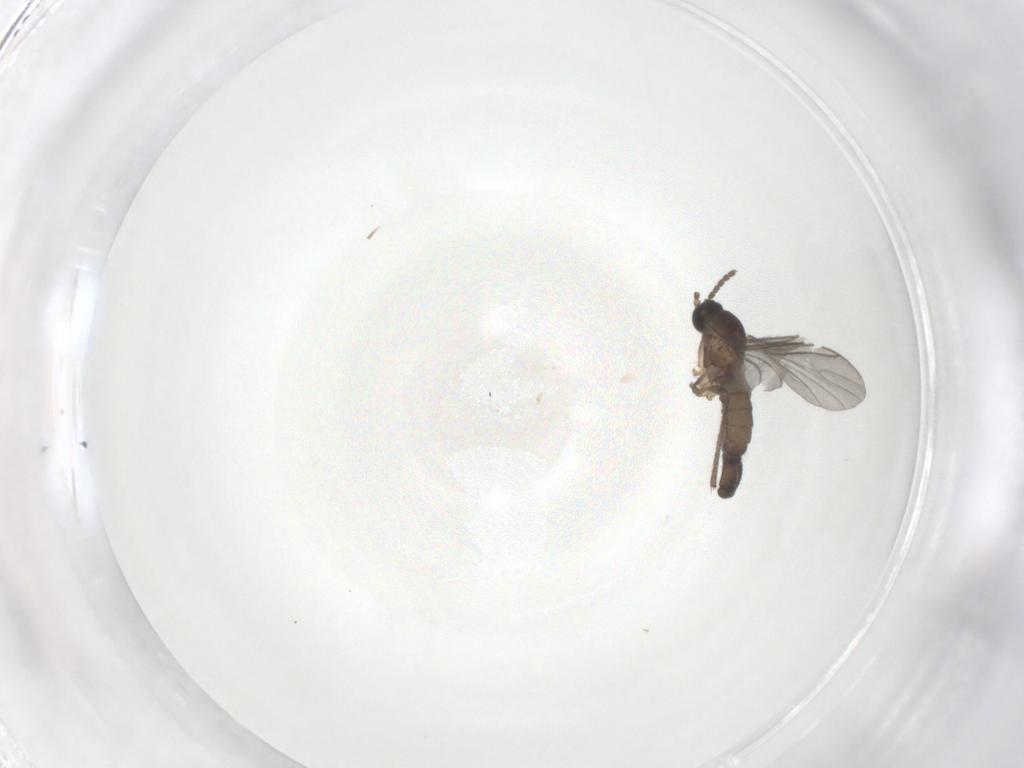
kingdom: Animalia
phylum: Arthropoda
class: Insecta
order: Diptera
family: Sciaridae
